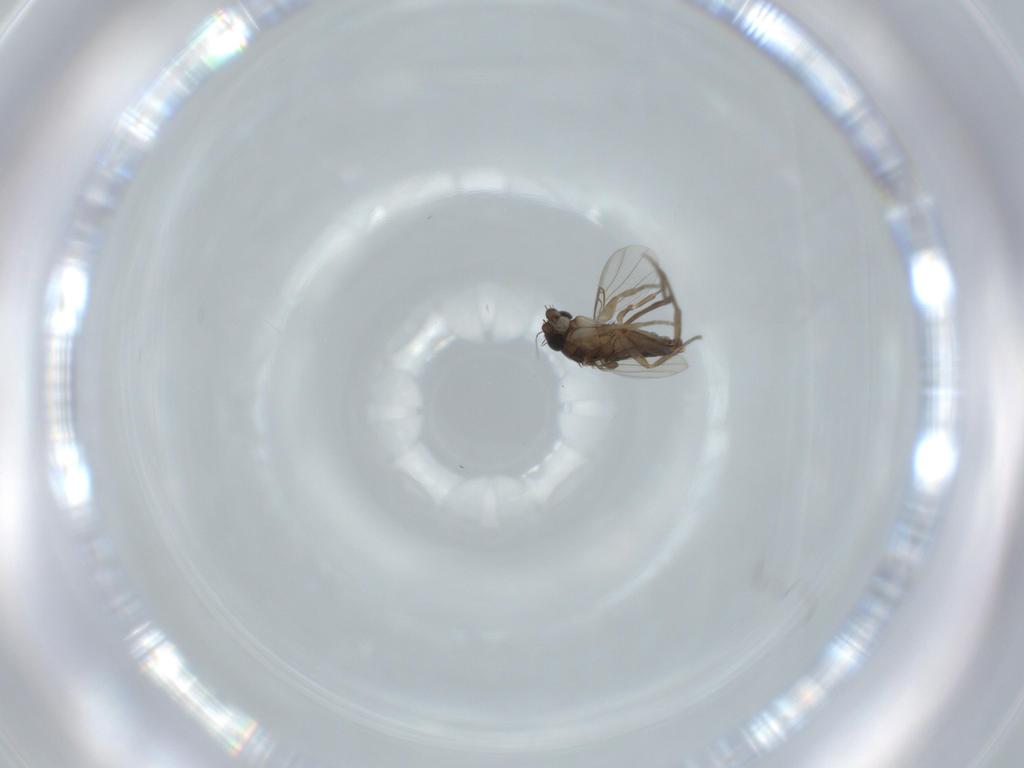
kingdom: Animalia
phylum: Arthropoda
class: Insecta
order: Diptera
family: Phoridae
